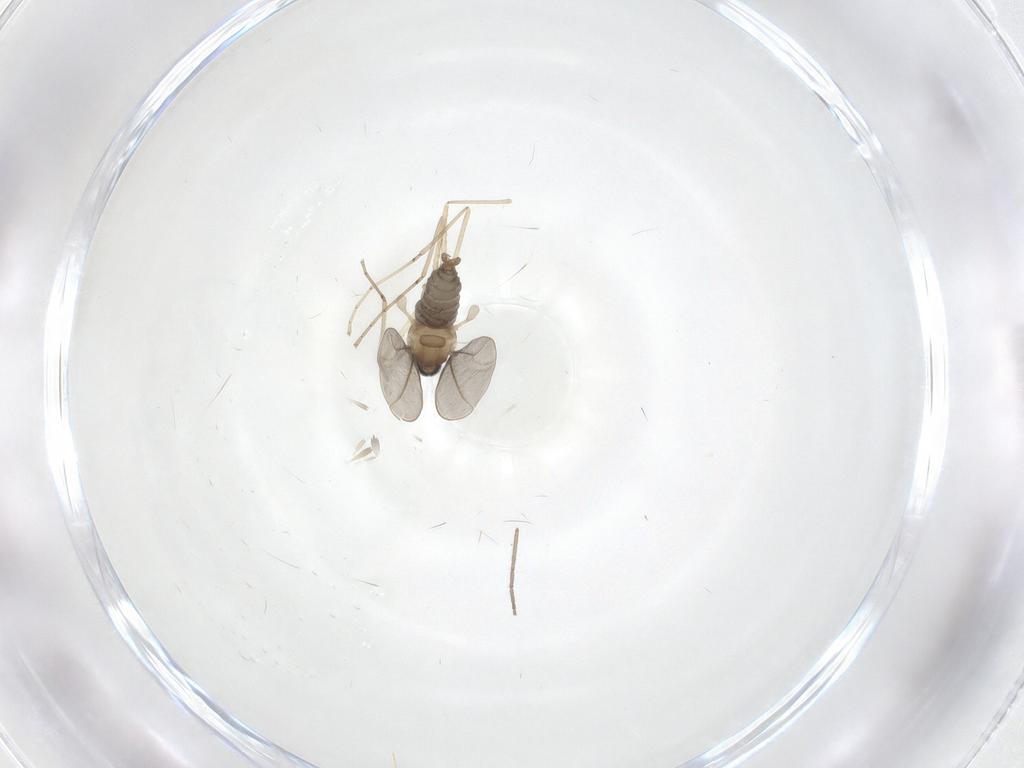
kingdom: Animalia
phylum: Arthropoda
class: Insecta
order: Diptera
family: Cecidomyiidae
